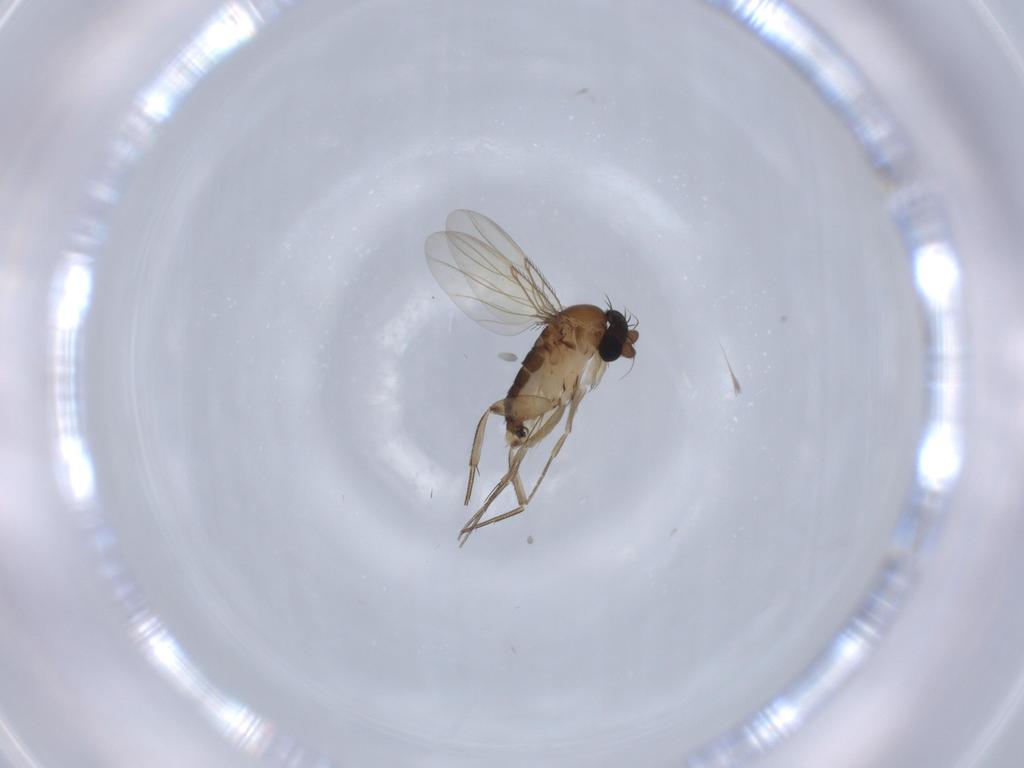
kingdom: Animalia
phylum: Arthropoda
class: Insecta
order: Diptera
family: Phoridae
